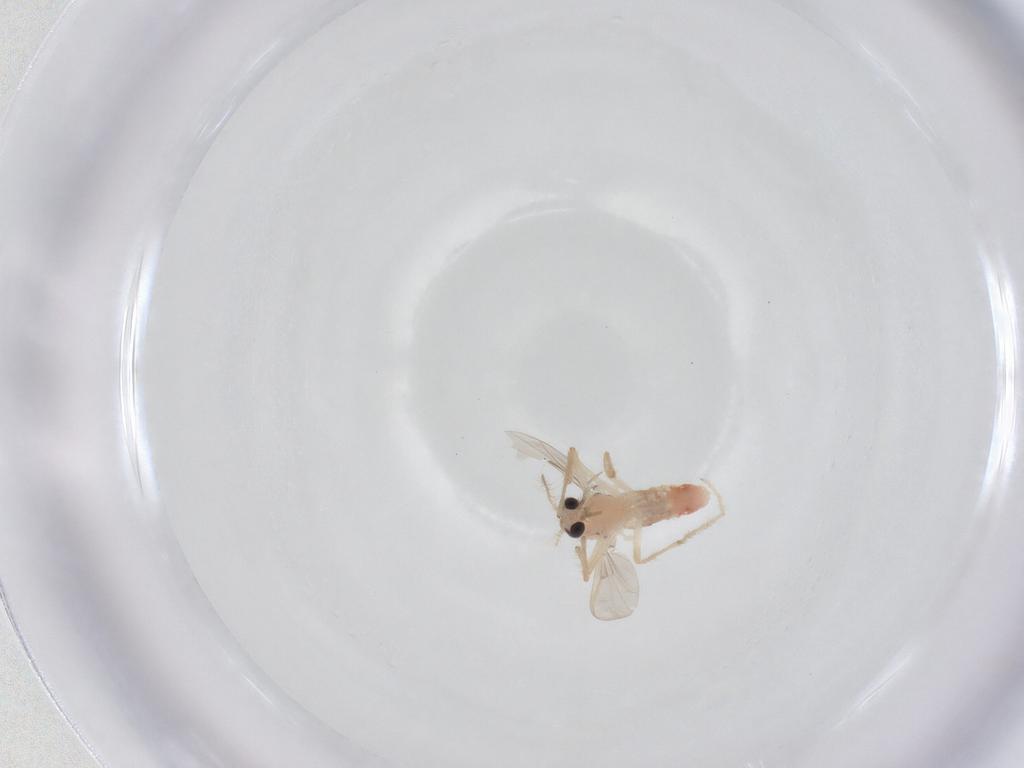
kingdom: Animalia
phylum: Arthropoda
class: Insecta
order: Diptera
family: Chironomidae
